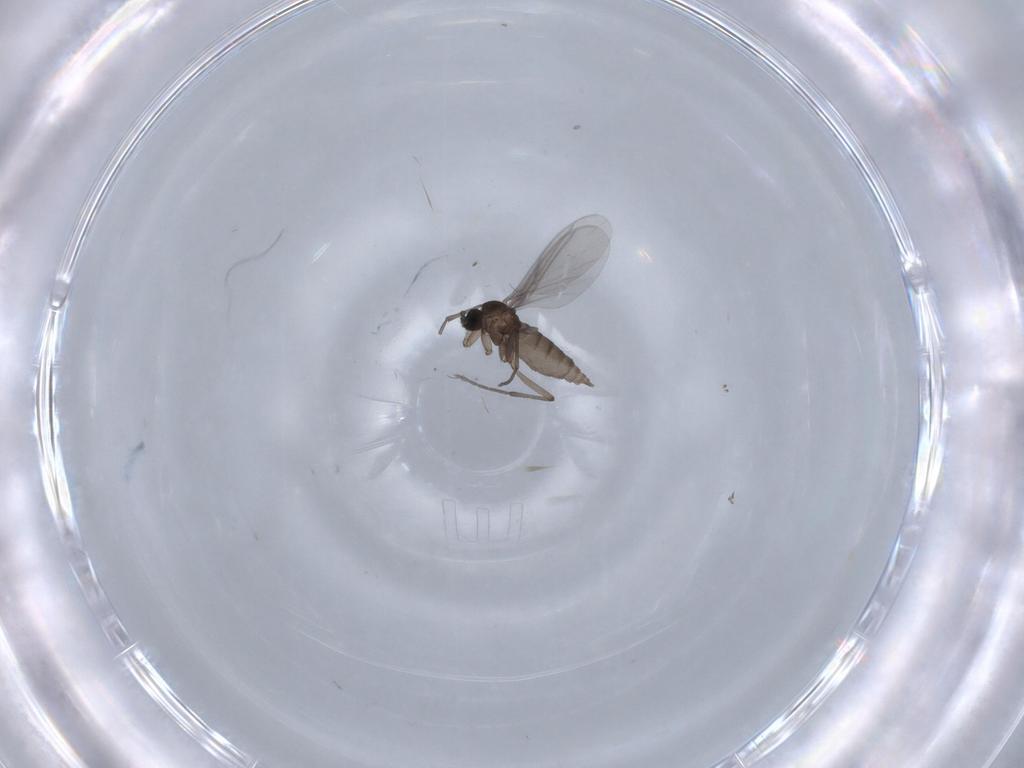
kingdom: Animalia
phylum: Arthropoda
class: Insecta
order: Diptera
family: Sciaridae
